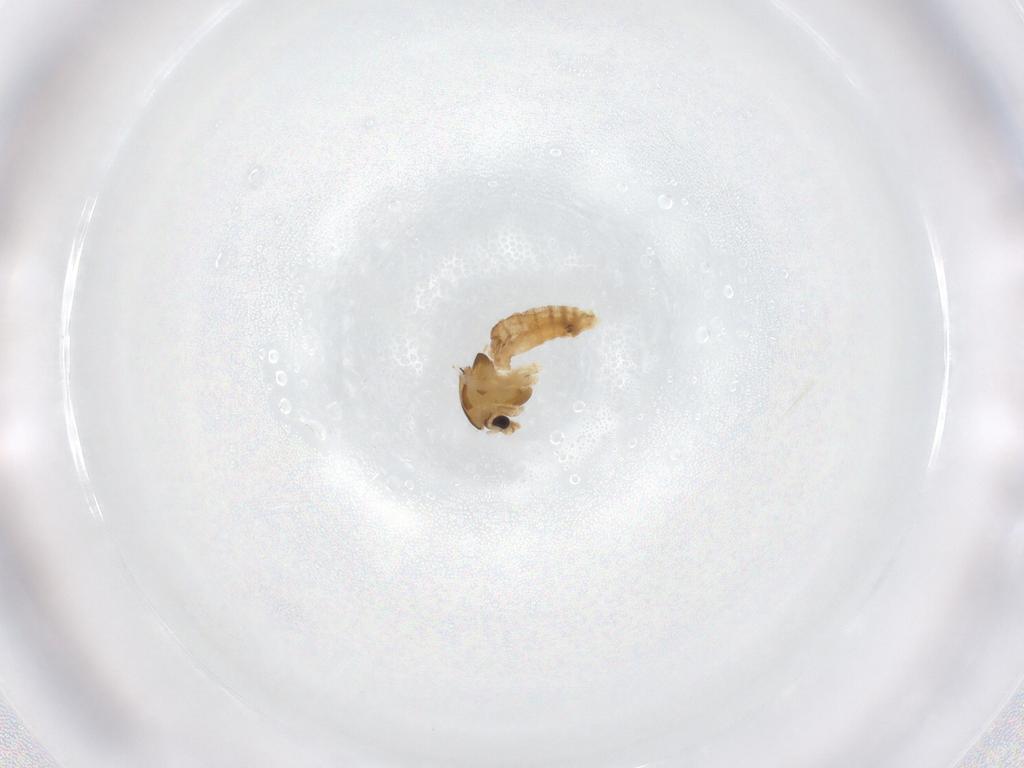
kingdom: Animalia
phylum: Arthropoda
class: Insecta
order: Diptera
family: Chironomidae
